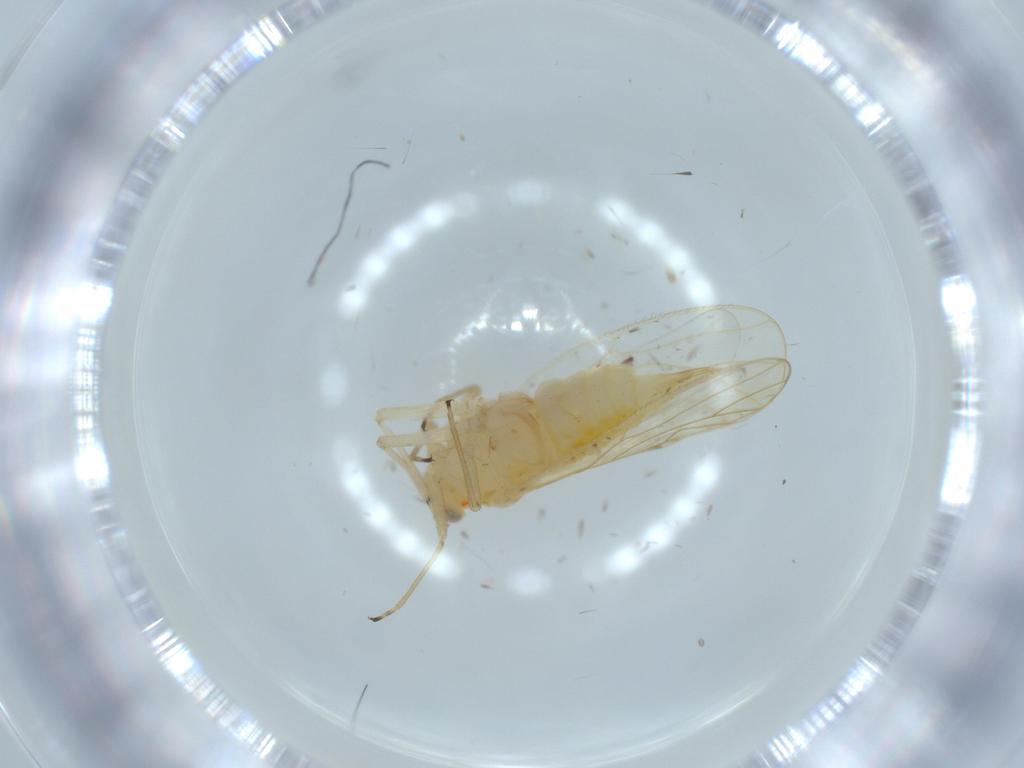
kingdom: Animalia
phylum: Arthropoda
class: Insecta
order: Hemiptera
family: Psyllidae
